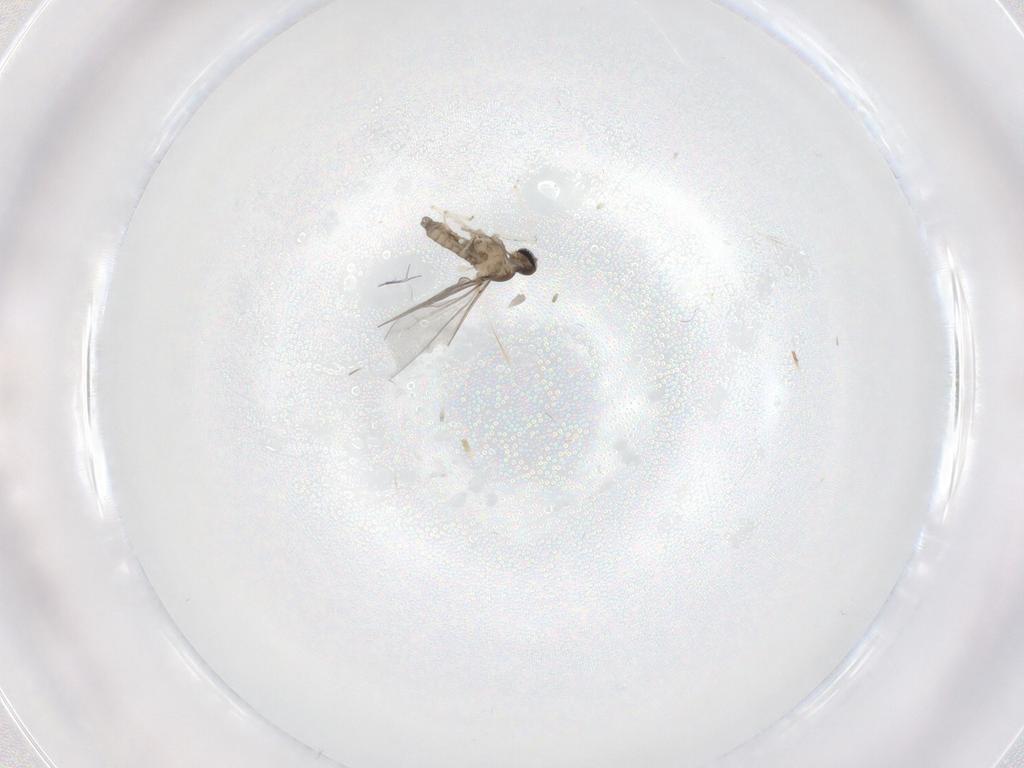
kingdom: Animalia
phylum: Arthropoda
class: Insecta
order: Diptera
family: Cecidomyiidae
